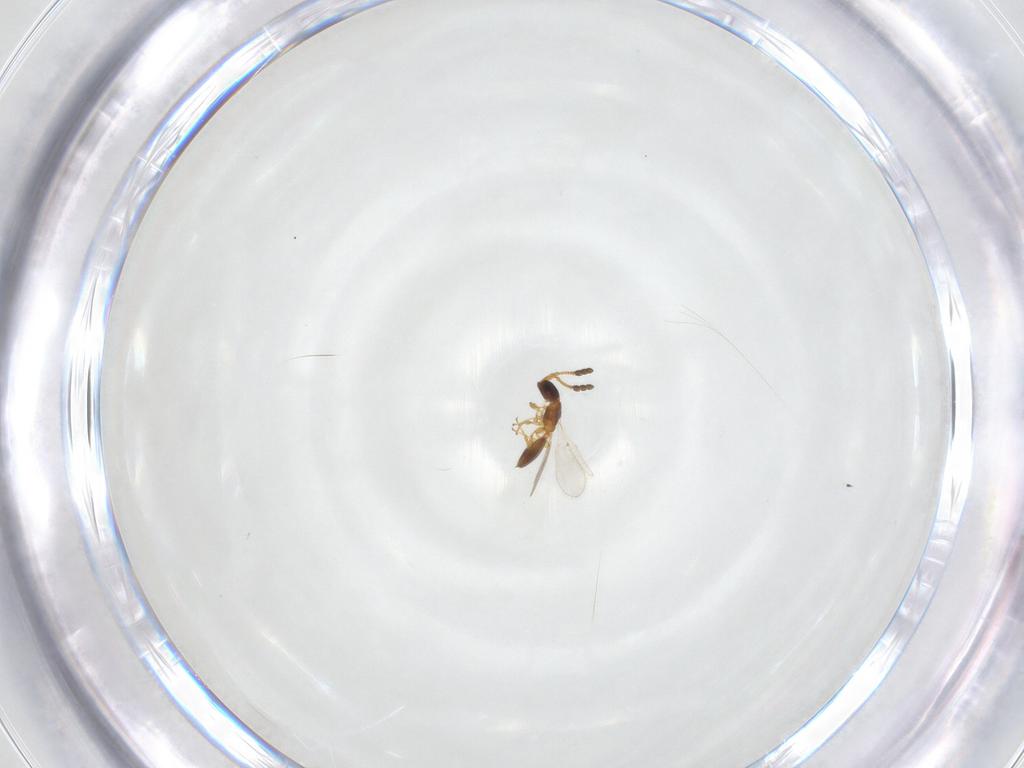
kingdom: Animalia
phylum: Arthropoda
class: Insecta
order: Hymenoptera
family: Diapriidae
